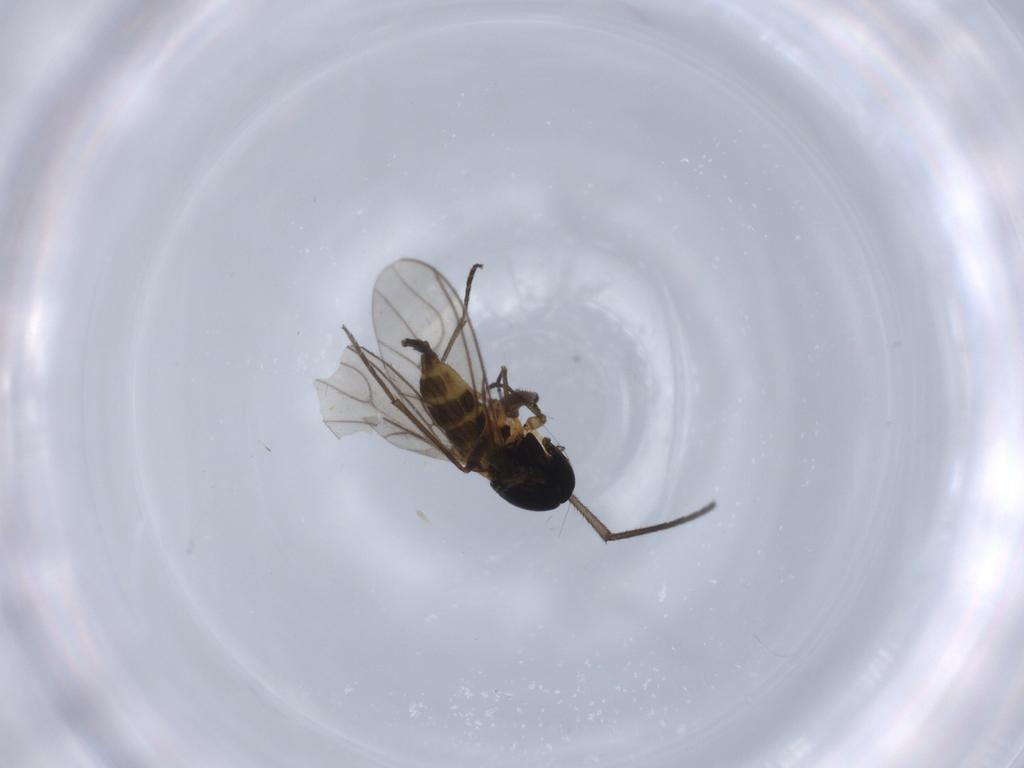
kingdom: Animalia
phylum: Arthropoda
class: Insecta
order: Diptera
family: Sciaridae
